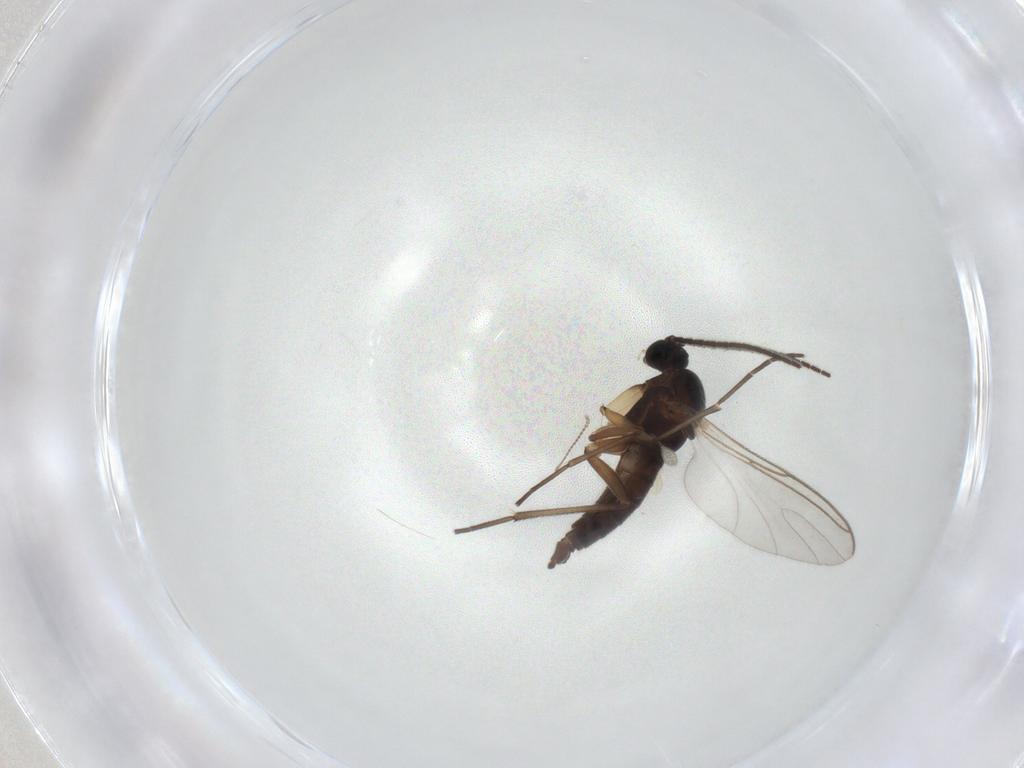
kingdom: Animalia
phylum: Arthropoda
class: Insecta
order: Diptera
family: Sciaridae
